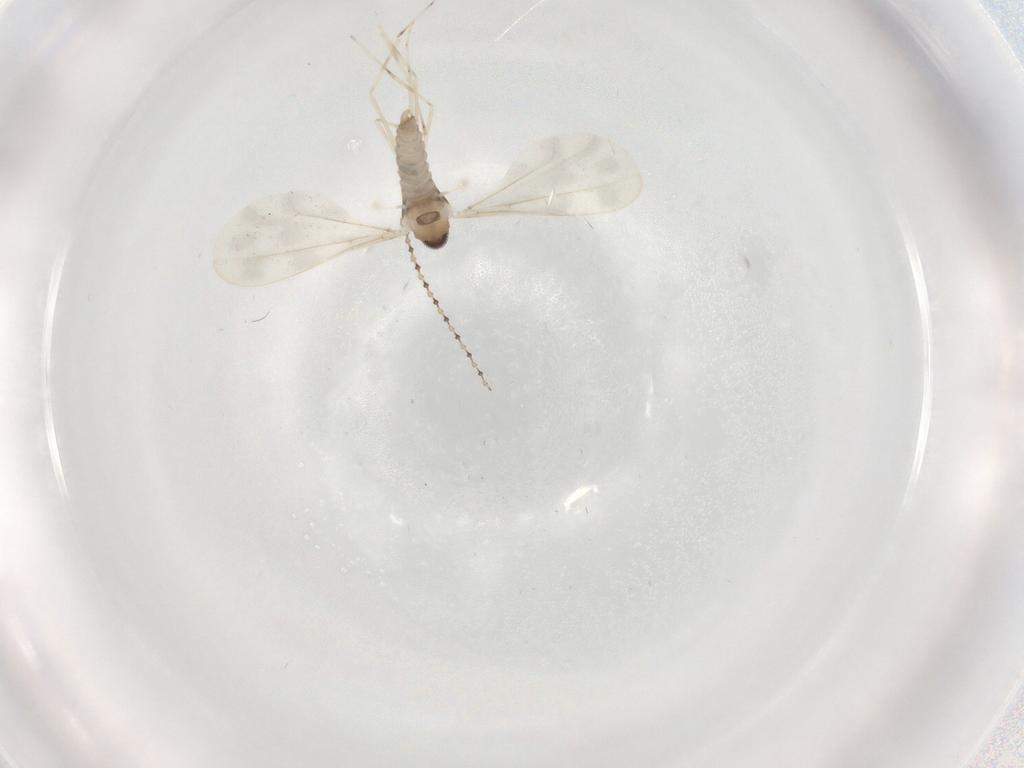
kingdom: Animalia
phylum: Arthropoda
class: Insecta
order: Diptera
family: Cecidomyiidae
